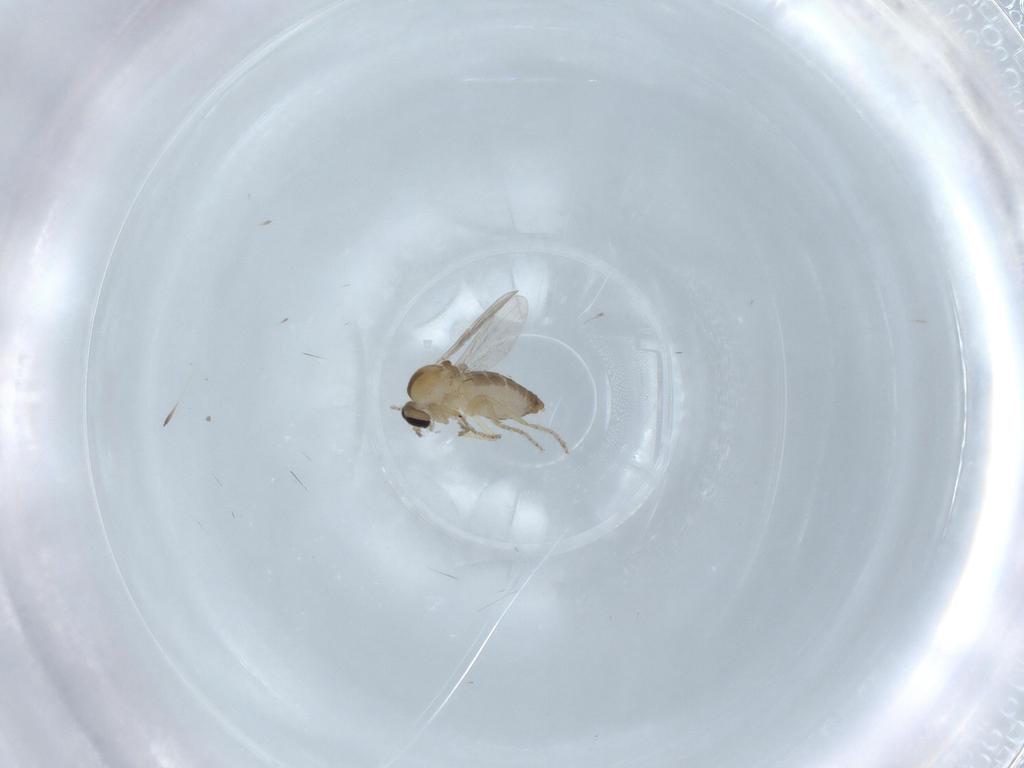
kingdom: Animalia
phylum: Arthropoda
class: Insecta
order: Diptera
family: Ceratopogonidae
